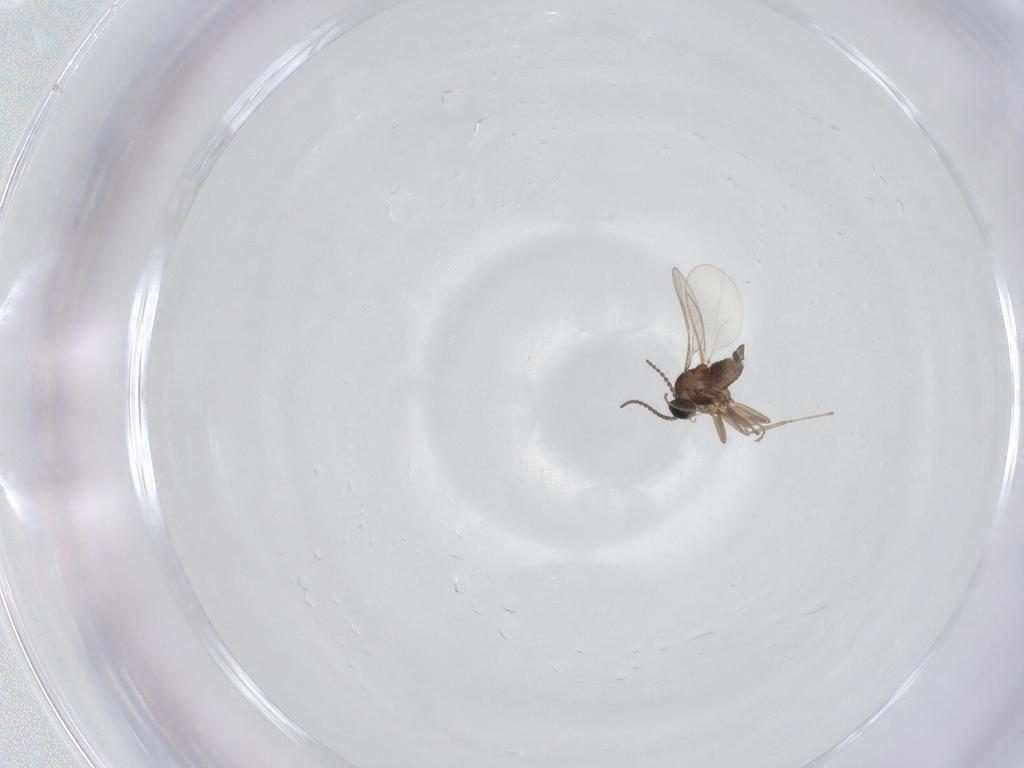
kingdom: Animalia
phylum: Arthropoda
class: Insecta
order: Diptera
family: Cecidomyiidae
